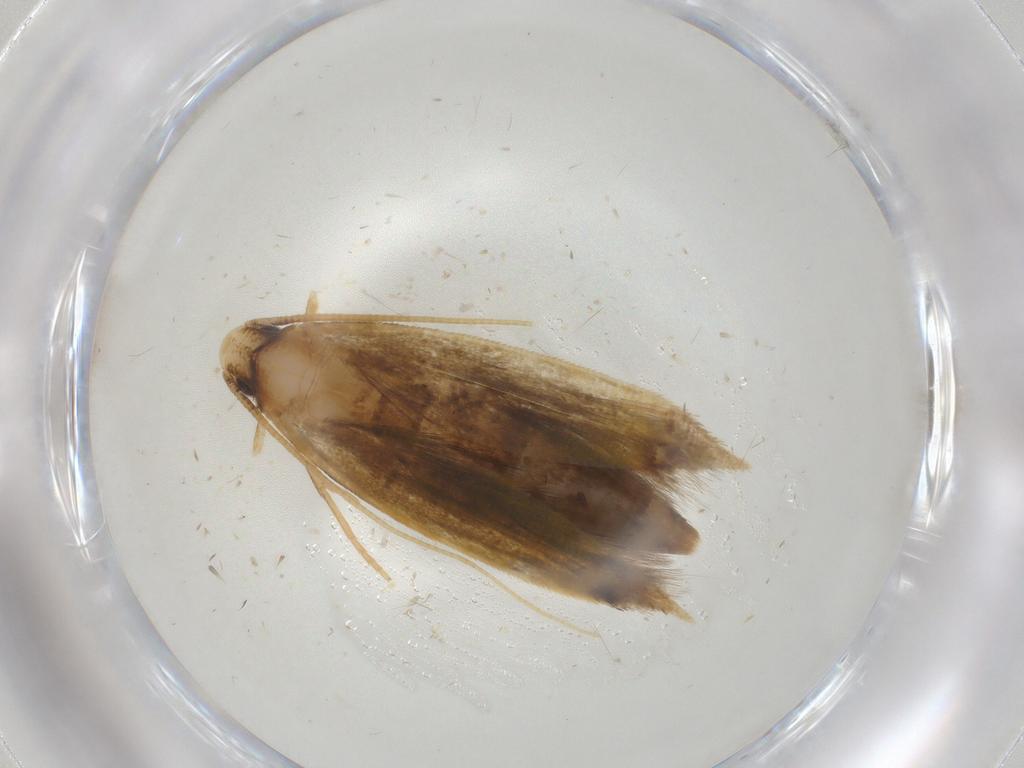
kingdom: Animalia
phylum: Arthropoda
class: Insecta
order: Lepidoptera
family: Tineidae
